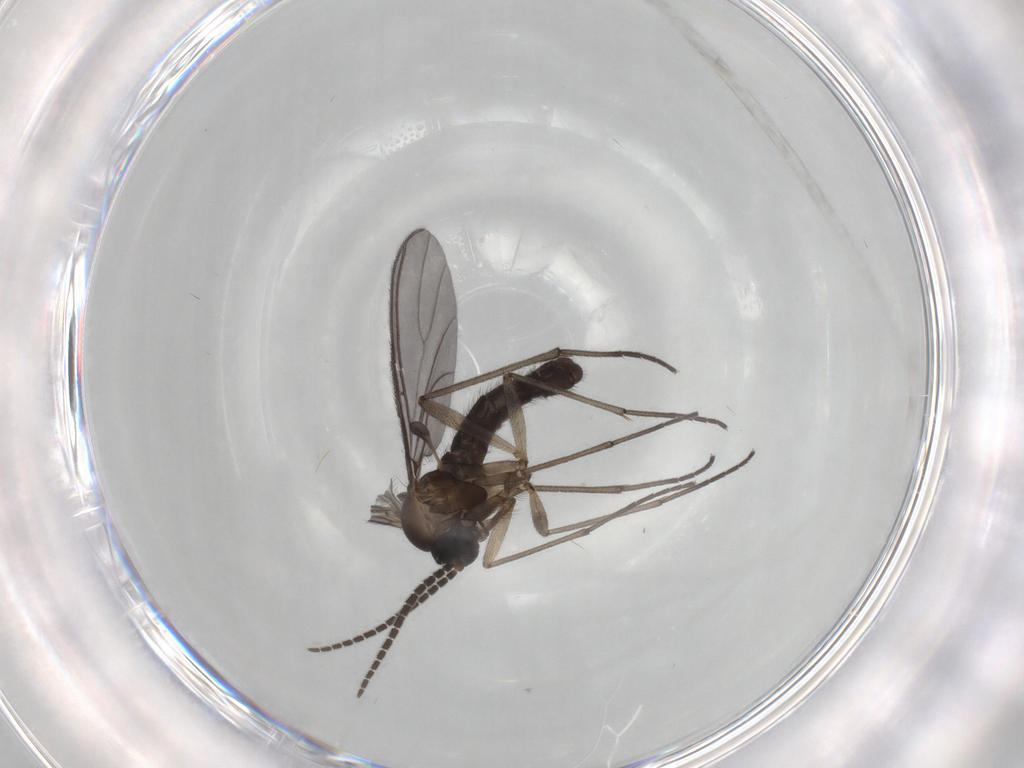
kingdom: Animalia
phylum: Arthropoda
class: Insecta
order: Diptera
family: Sciaridae
